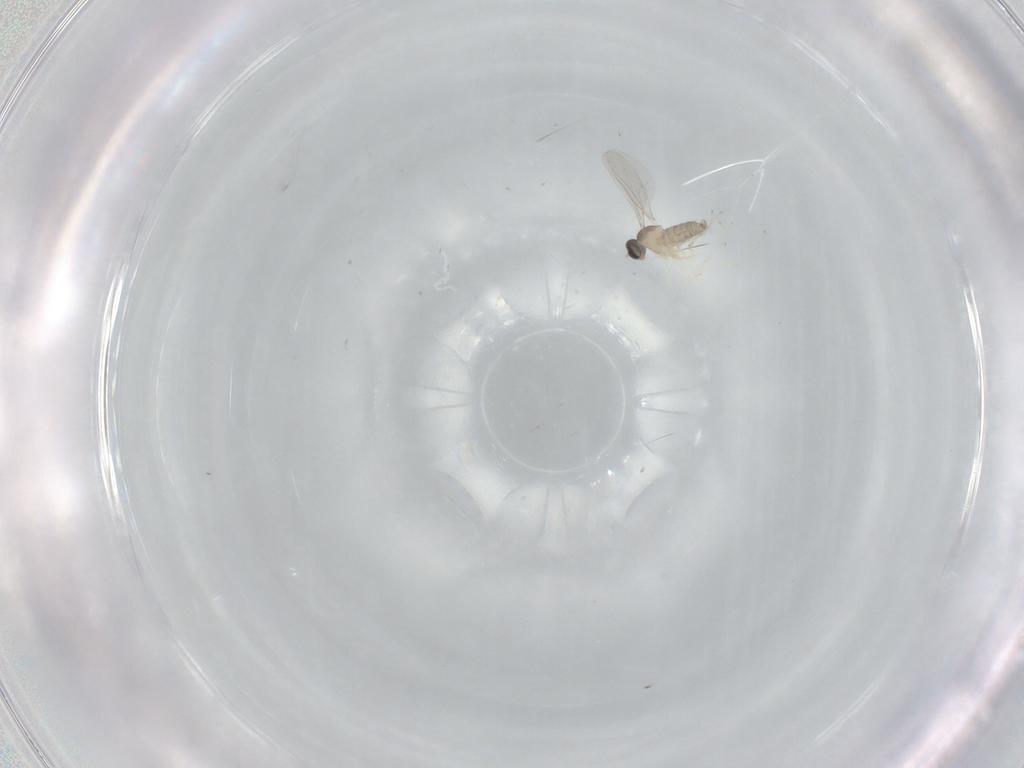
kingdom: Animalia
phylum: Arthropoda
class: Insecta
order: Diptera
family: Cecidomyiidae
